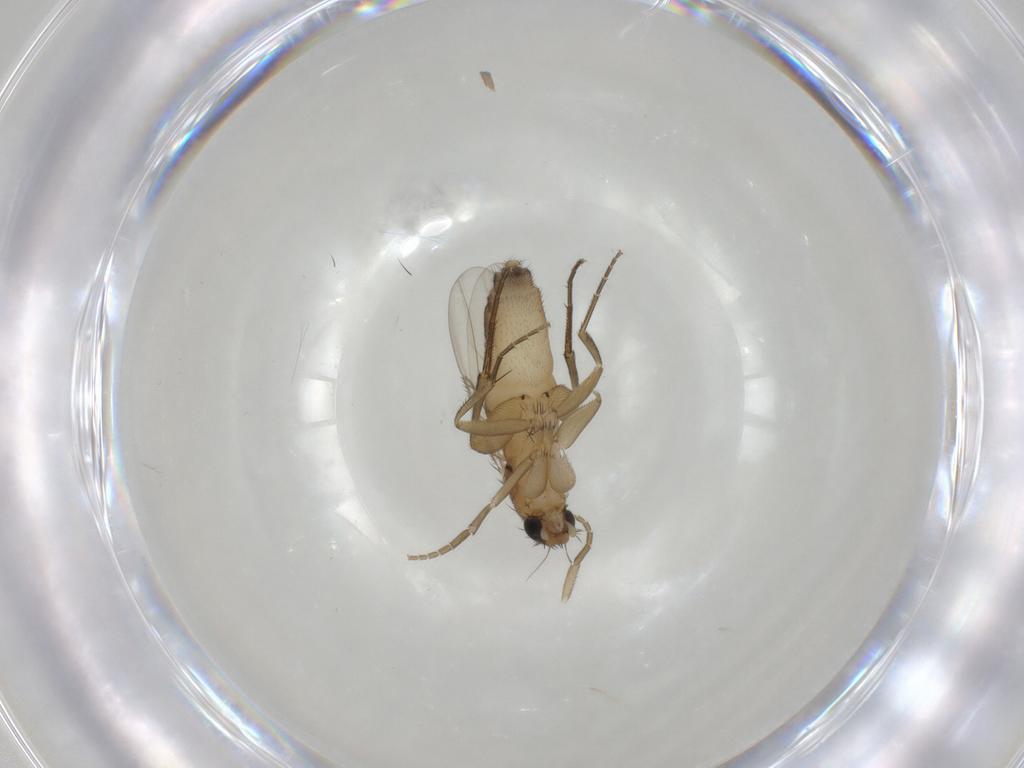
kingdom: Animalia
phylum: Arthropoda
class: Insecta
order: Diptera
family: Phoridae
